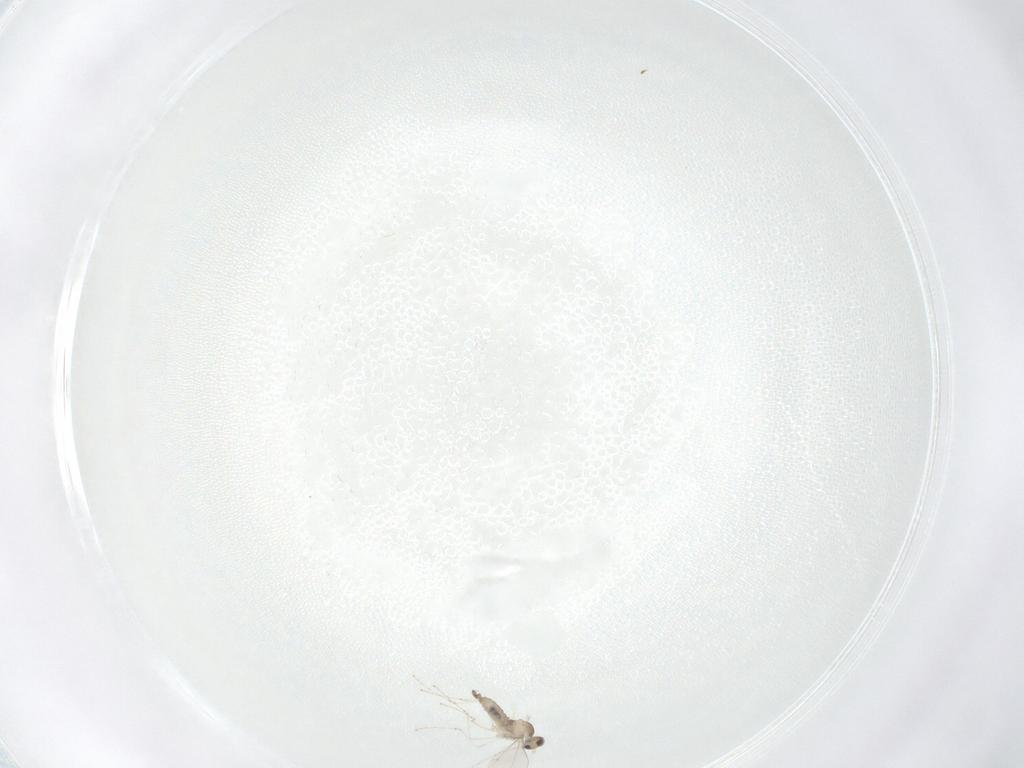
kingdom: Animalia
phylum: Arthropoda
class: Insecta
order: Diptera
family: Cecidomyiidae
